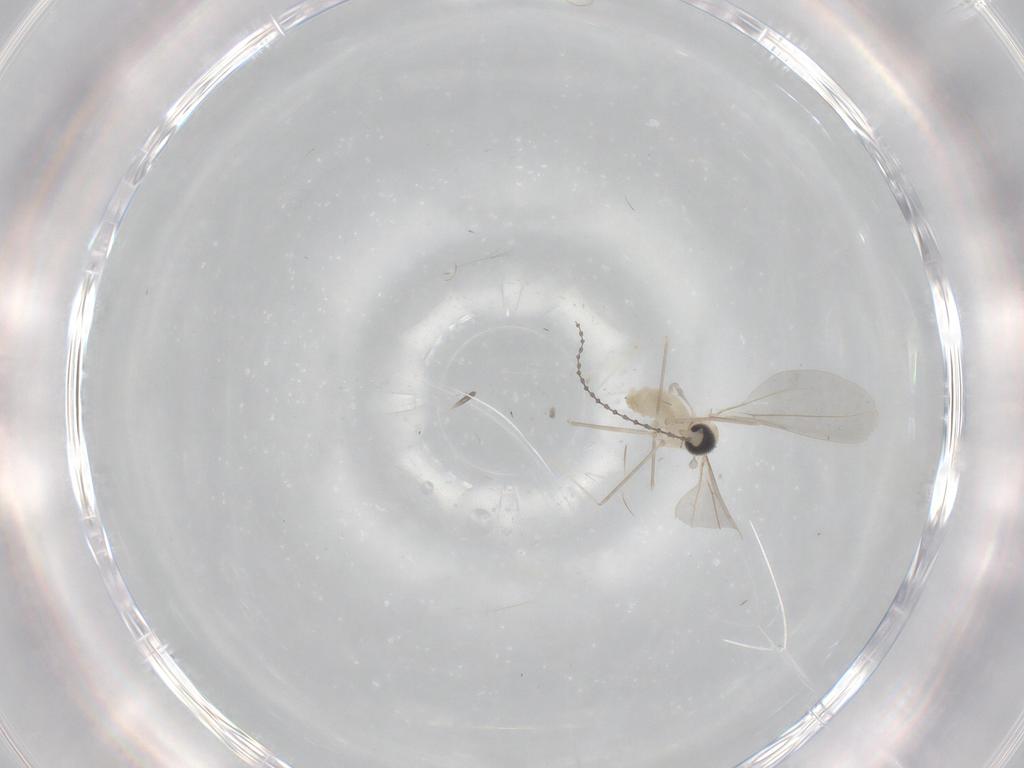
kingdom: Animalia
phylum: Arthropoda
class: Insecta
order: Diptera
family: Cecidomyiidae
